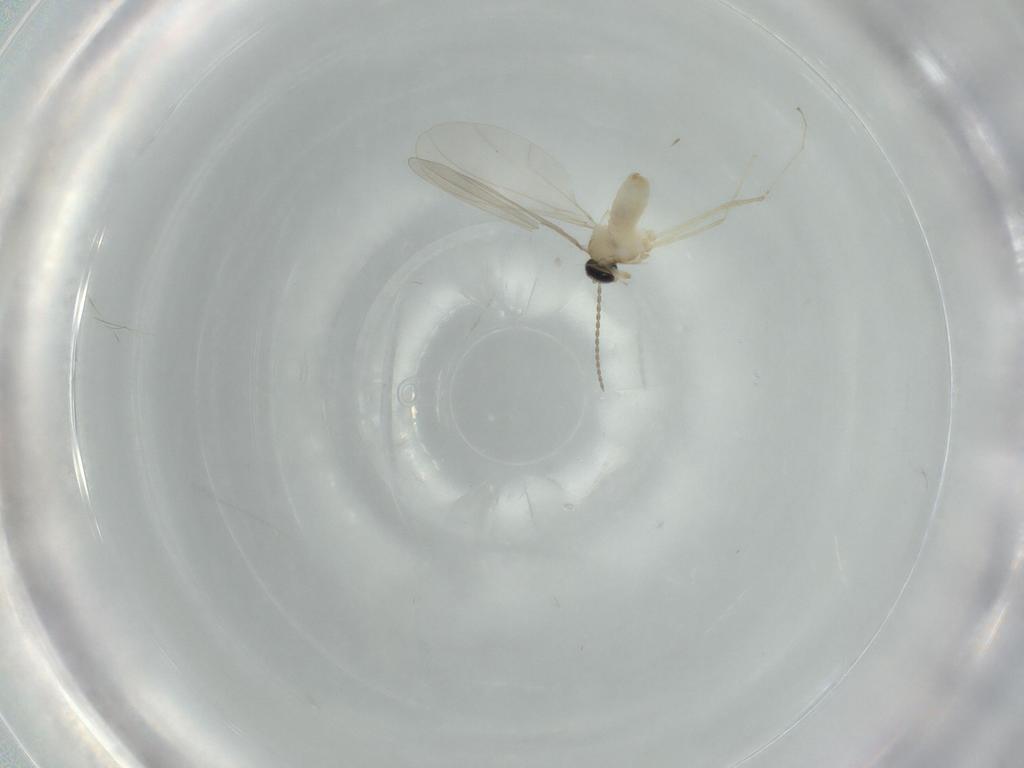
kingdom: Animalia
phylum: Arthropoda
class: Insecta
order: Diptera
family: Cecidomyiidae
